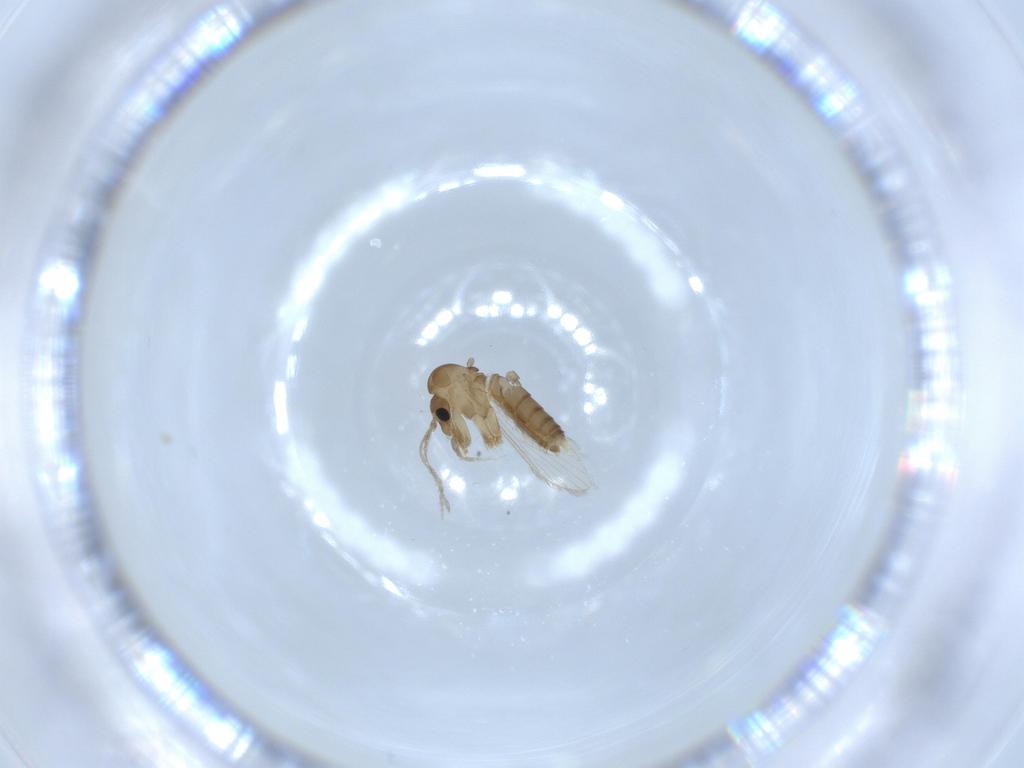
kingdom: Animalia
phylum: Arthropoda
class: Insecta
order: Diptera
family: Psychodidae
